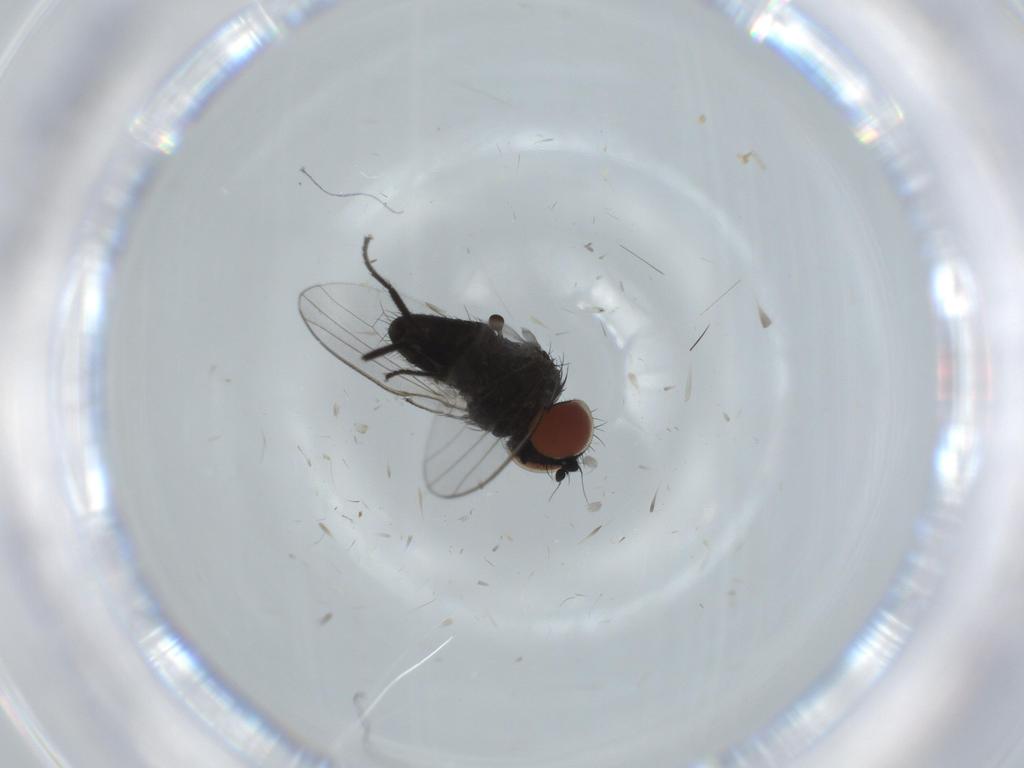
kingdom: Animalia
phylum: Arthropoda
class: Insecta
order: Diptera
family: Milichiidae
